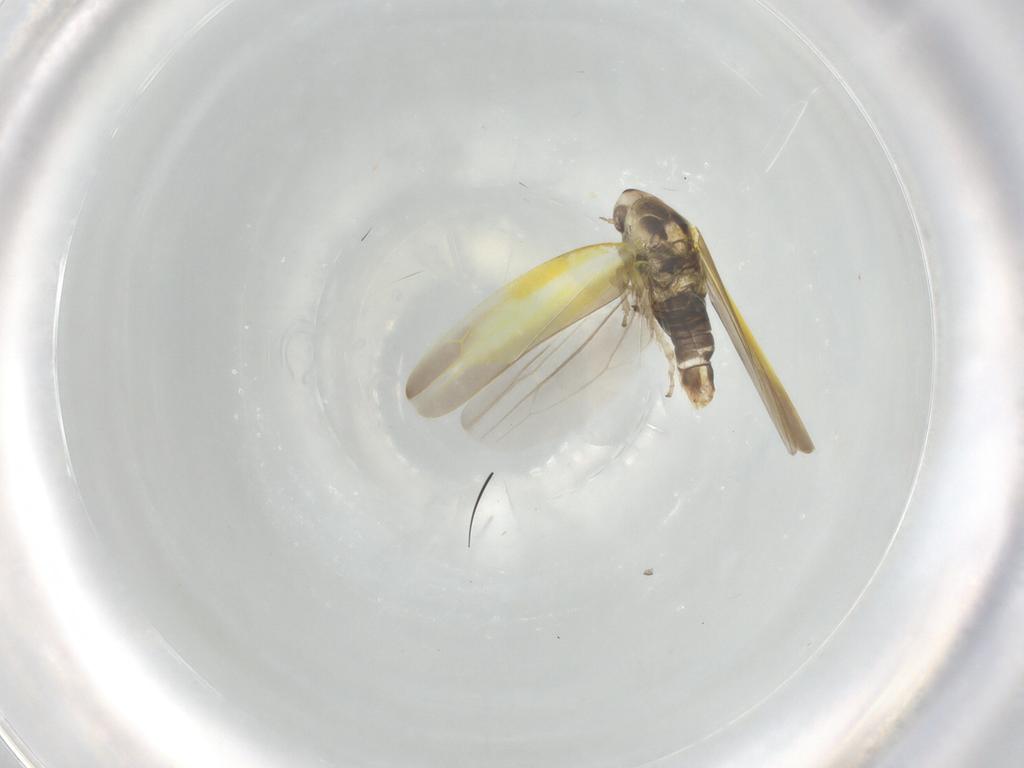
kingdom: Animalia
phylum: Arthropoda
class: Insecta
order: Hemiptera
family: Cicadellidae
